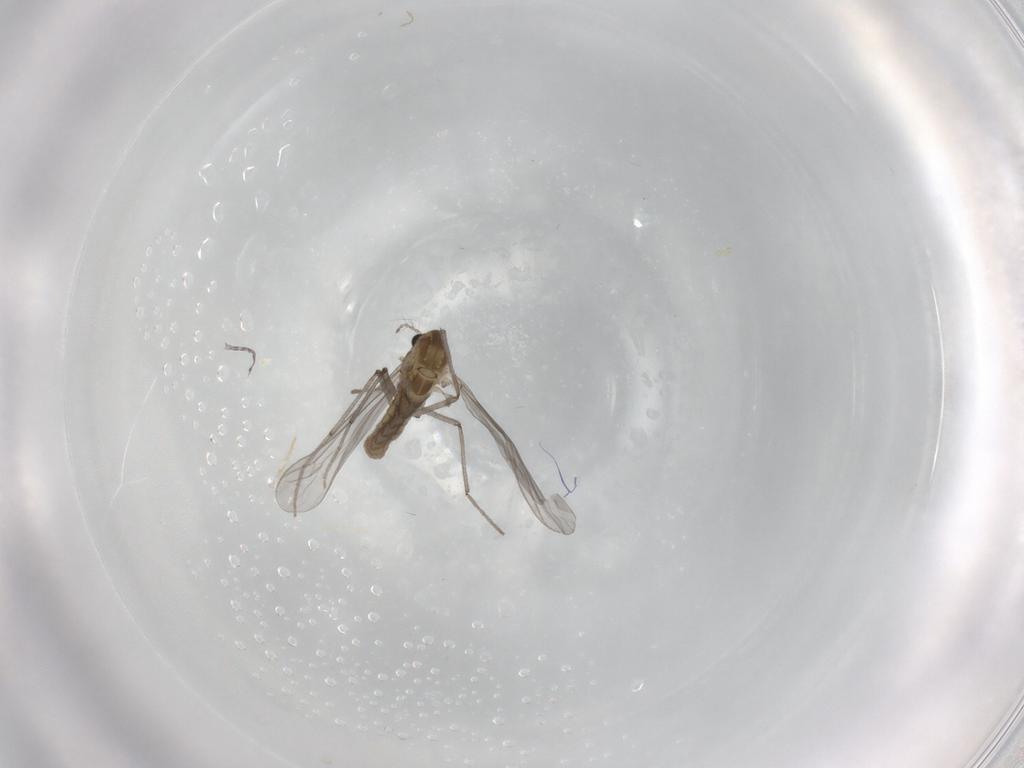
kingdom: Animalia
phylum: Arthropoda
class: Insecta
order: Diptera
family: Chironomidae
